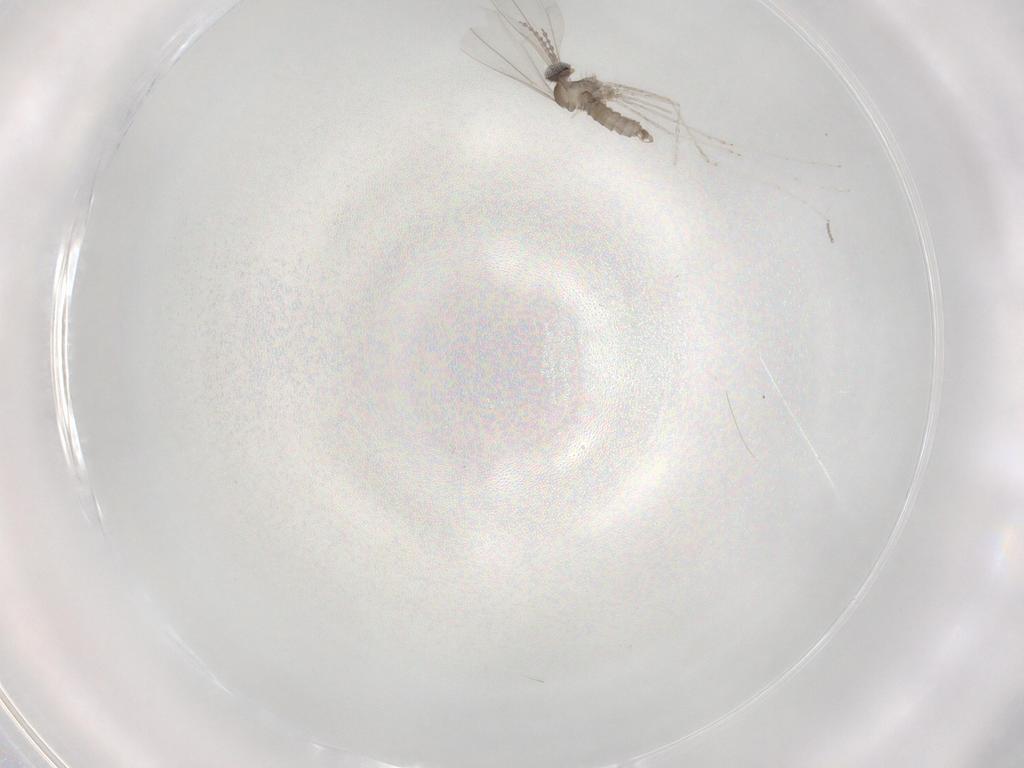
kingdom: Animalia
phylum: Arthropoda
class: Insecta
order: Diptera
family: Cecidomyiidae
